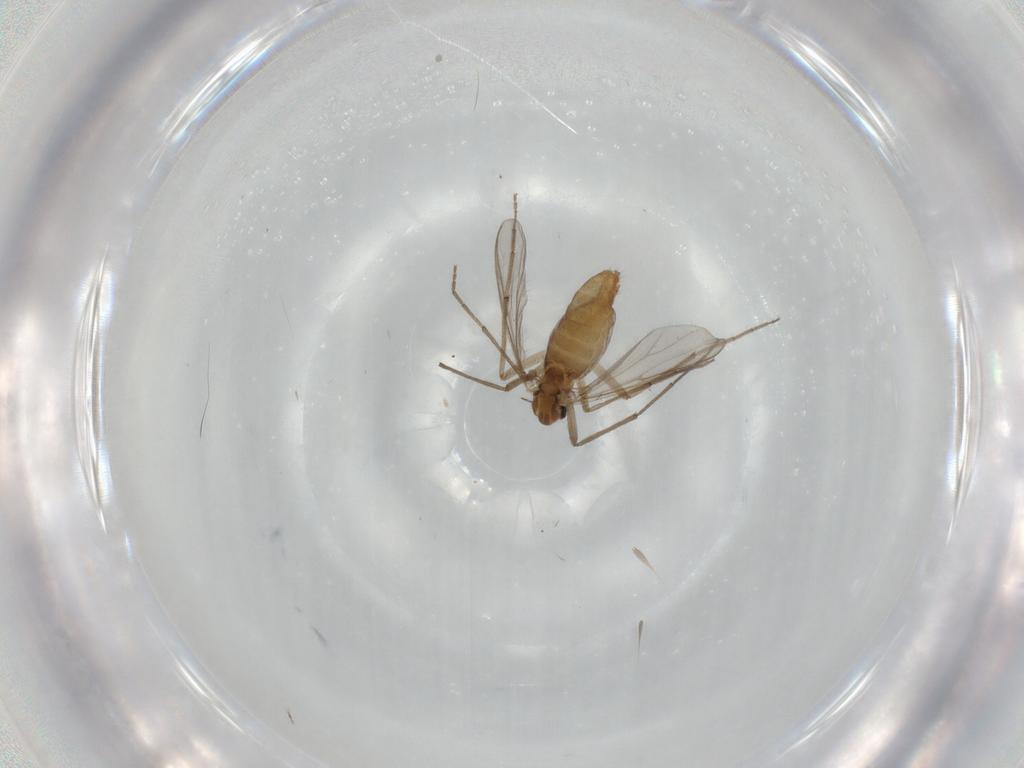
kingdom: Animalia
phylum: Arthropoda
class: Insecta
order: Diptera
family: Chironomidae
